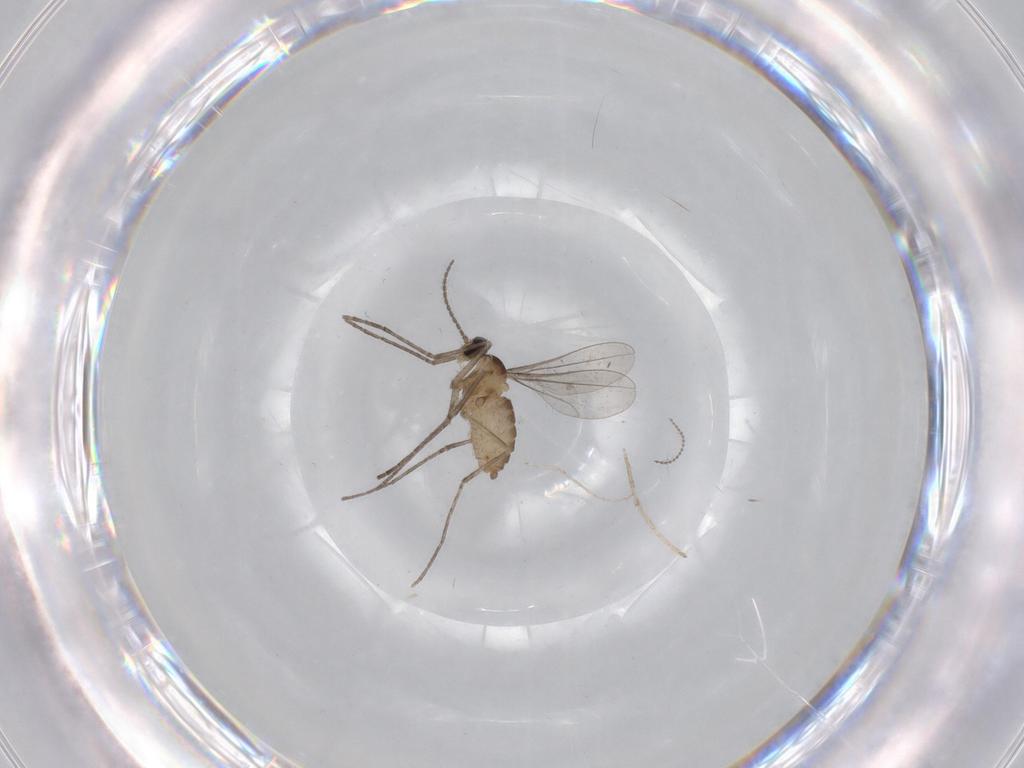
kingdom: Animalia
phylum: Arthropoda
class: Insecta
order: Diptera
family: Cecidomyiidae
